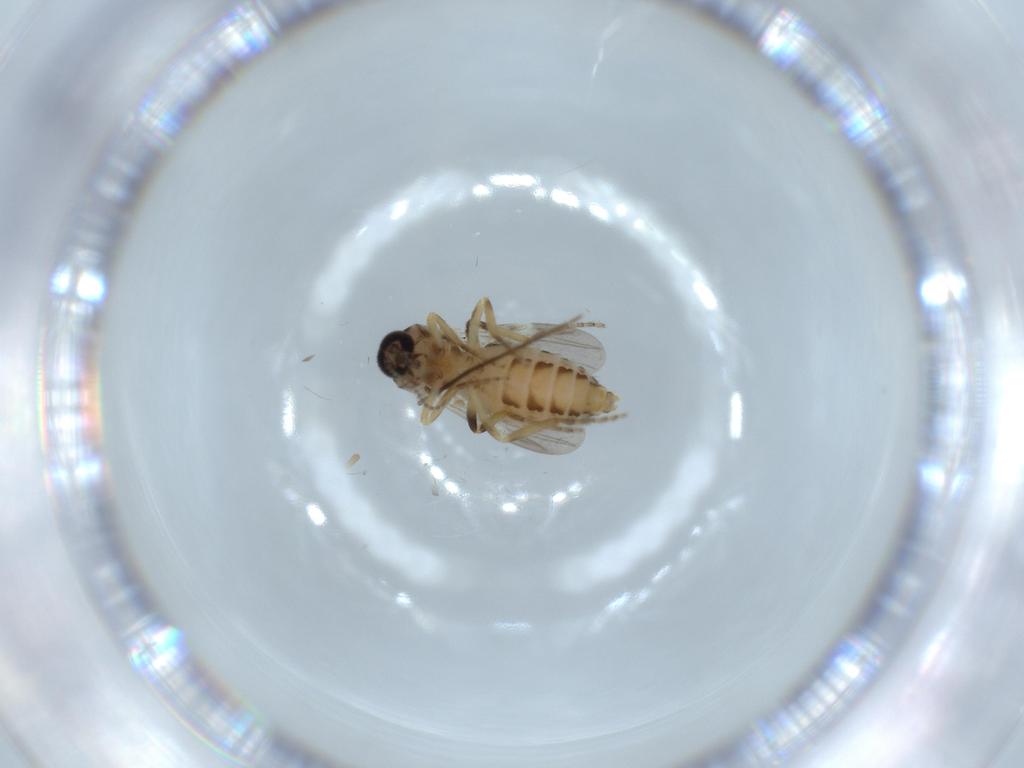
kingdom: Animalia
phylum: Arthropoda
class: Insecta
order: Diptera
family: Ceratopogonidae
